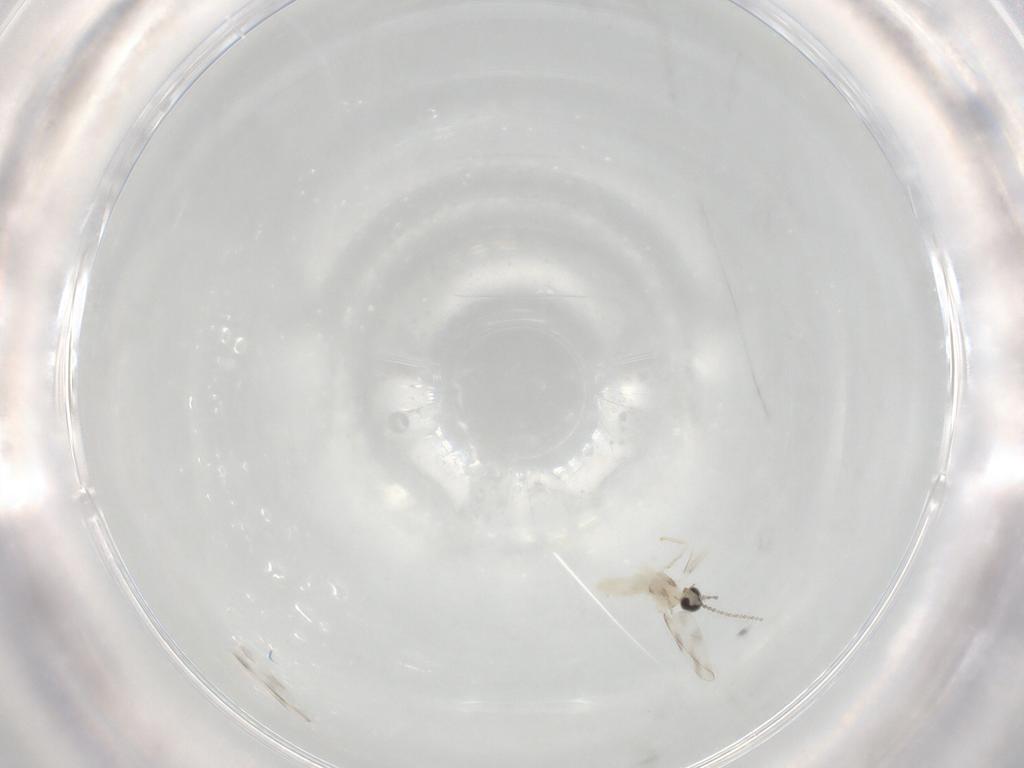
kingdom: Animalia
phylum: Arthropoda
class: Insecta
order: Diptera
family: Cecidomyiidae
